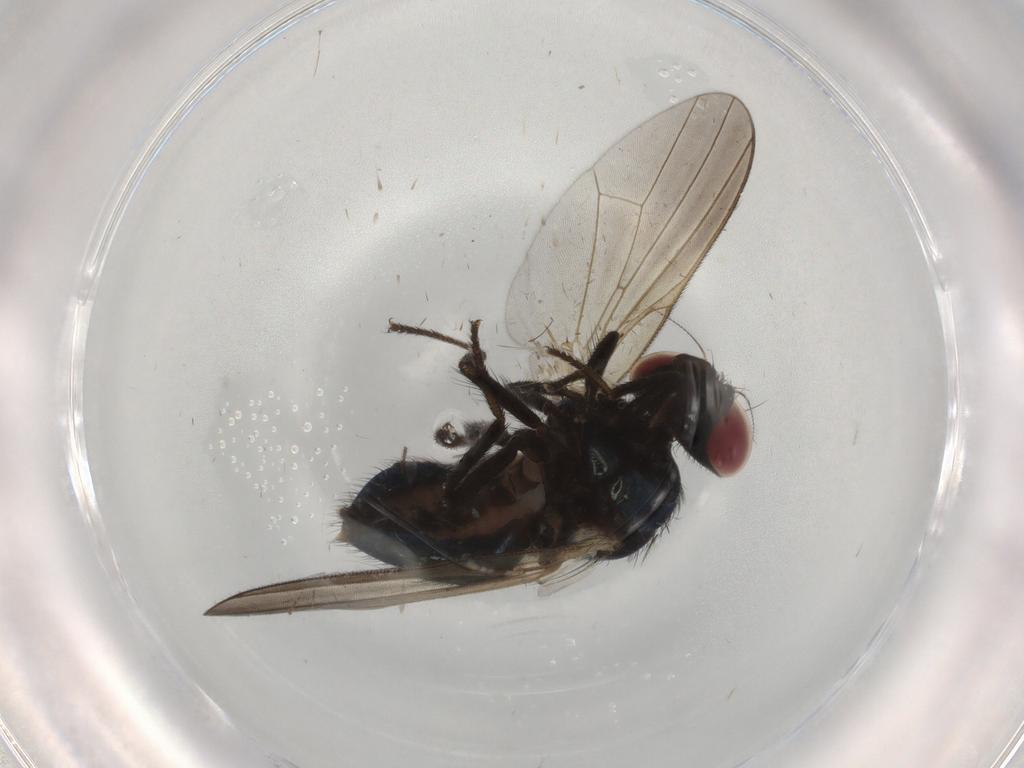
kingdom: Animalia
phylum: Arthropoda
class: Insecta
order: Diptera
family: Lonchaeidae
